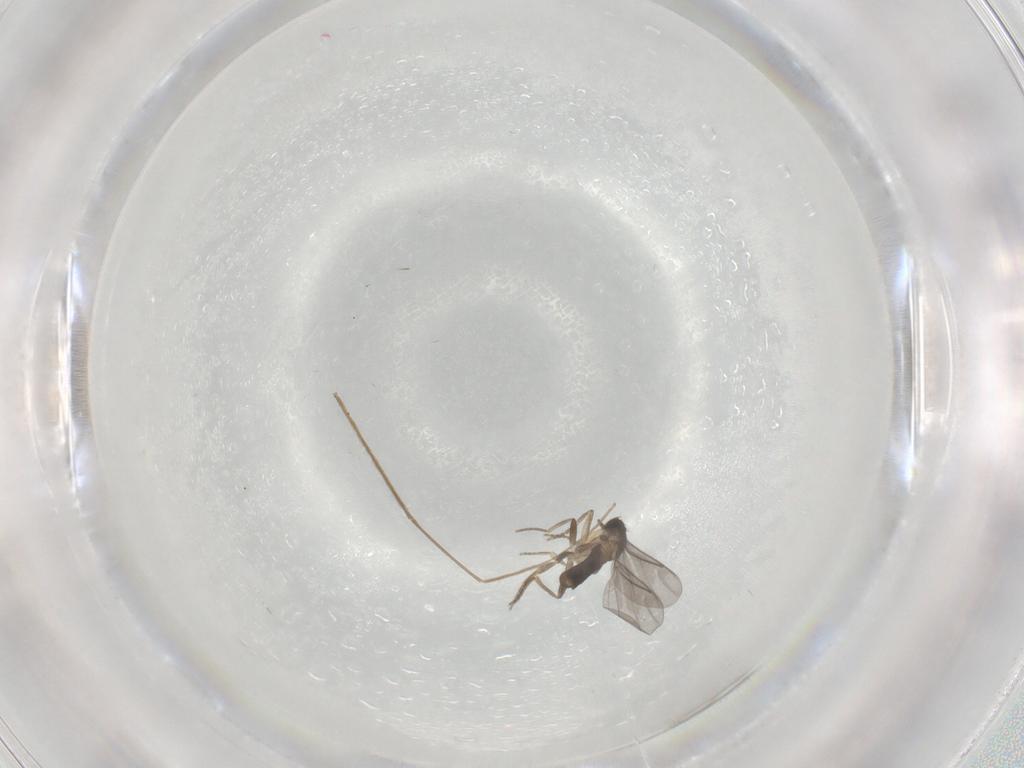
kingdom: Animalia
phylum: Arthropoda
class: Insecta
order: Diptera
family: Chironomidae
